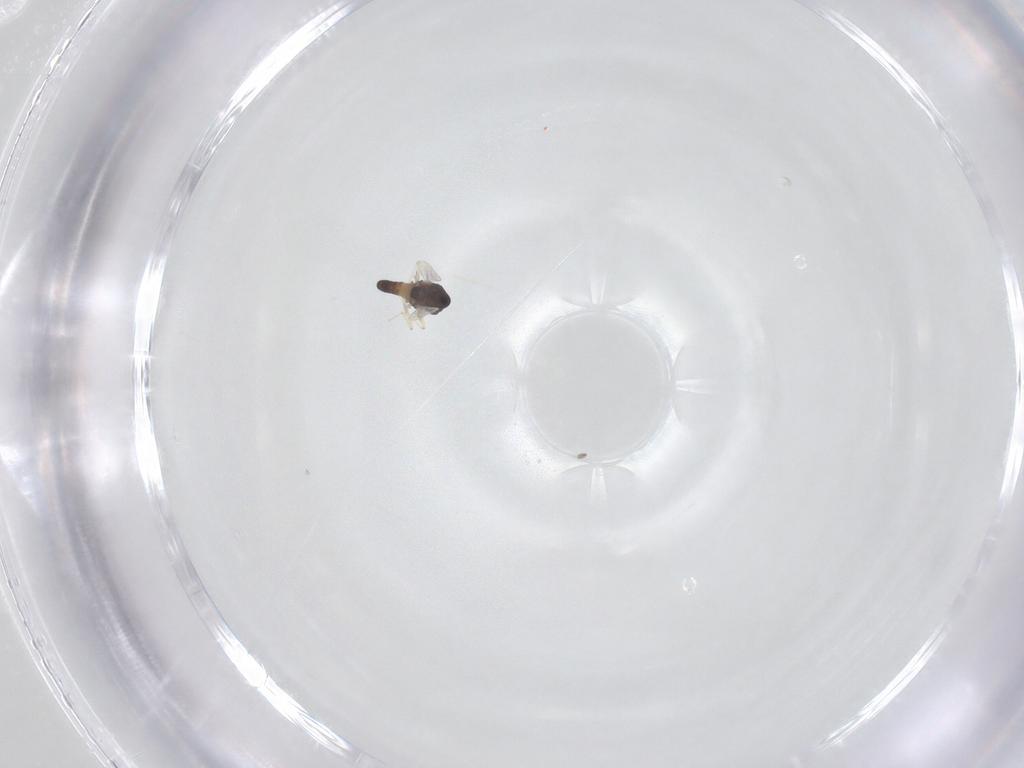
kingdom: Animalia
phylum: Arthropoda
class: Insecta
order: Diptera
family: Chironomidae
